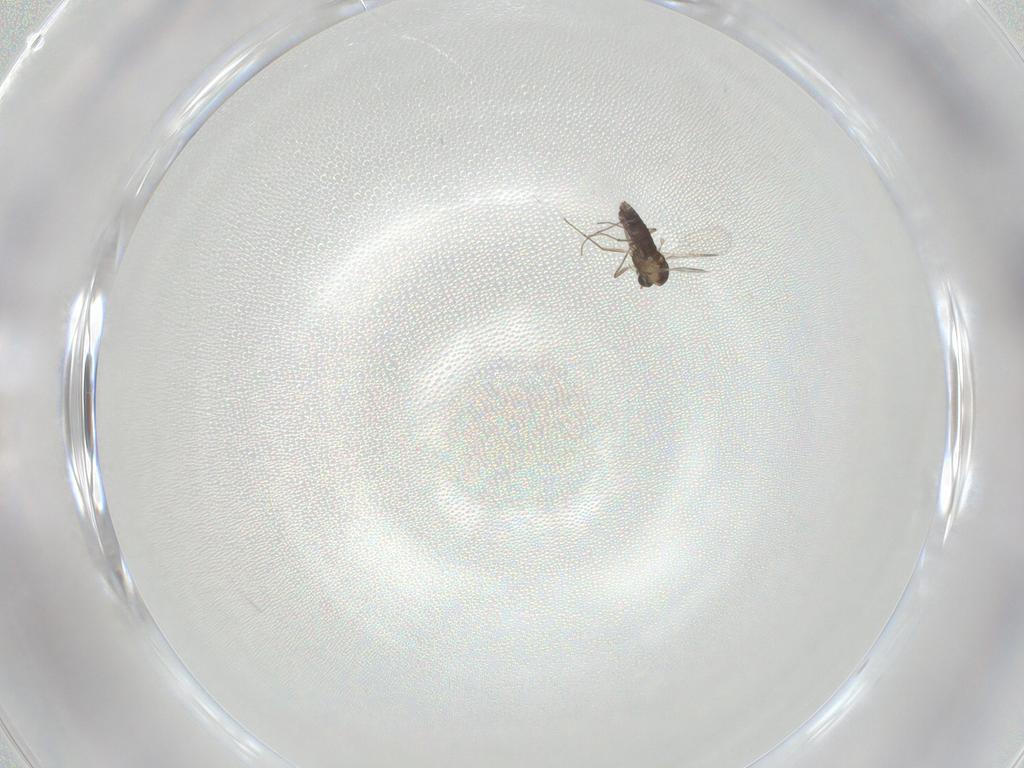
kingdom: Animalia
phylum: Arthropoda
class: Insecta
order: Diptera
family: Chironomidae
